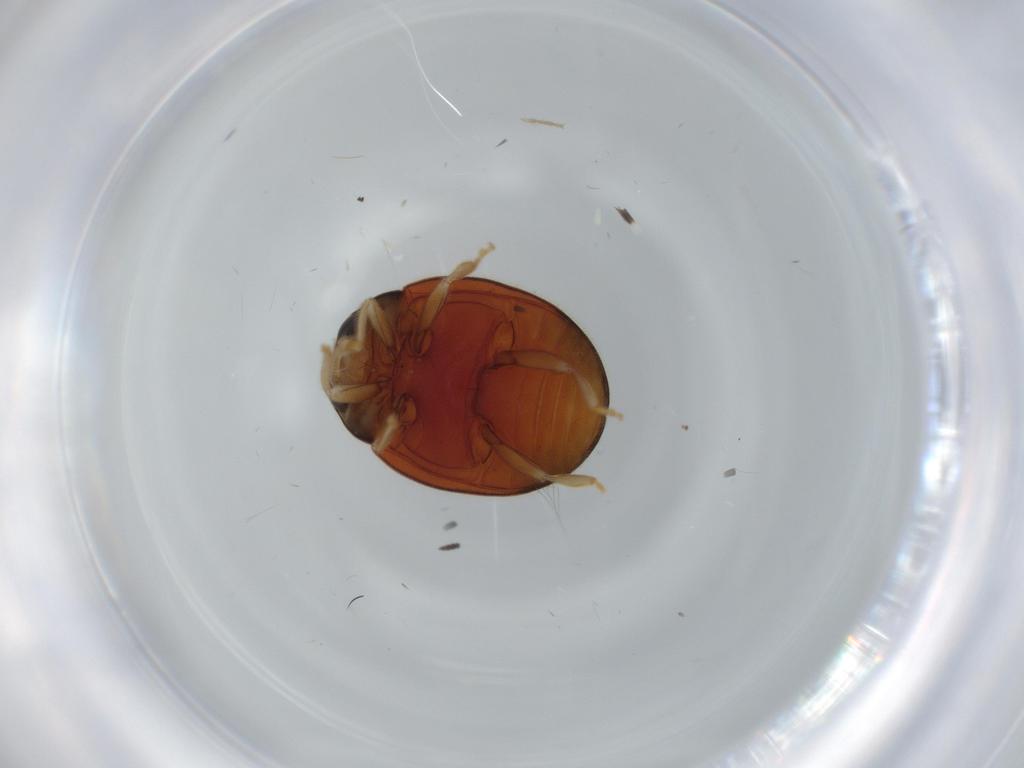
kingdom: Animalia
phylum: Arthropoda
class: Insecta
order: Coleoptera
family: Coccinellidae
